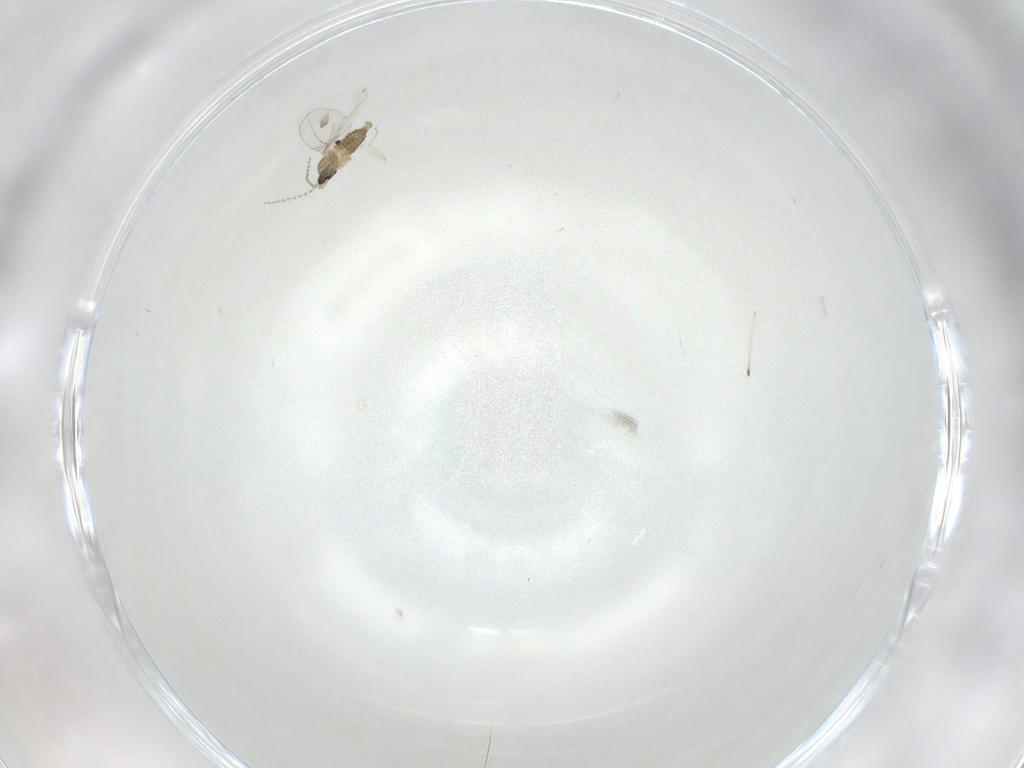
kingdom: Animalia
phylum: Arthropoda
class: Insecta
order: Diptera
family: Cecidomyiidae
